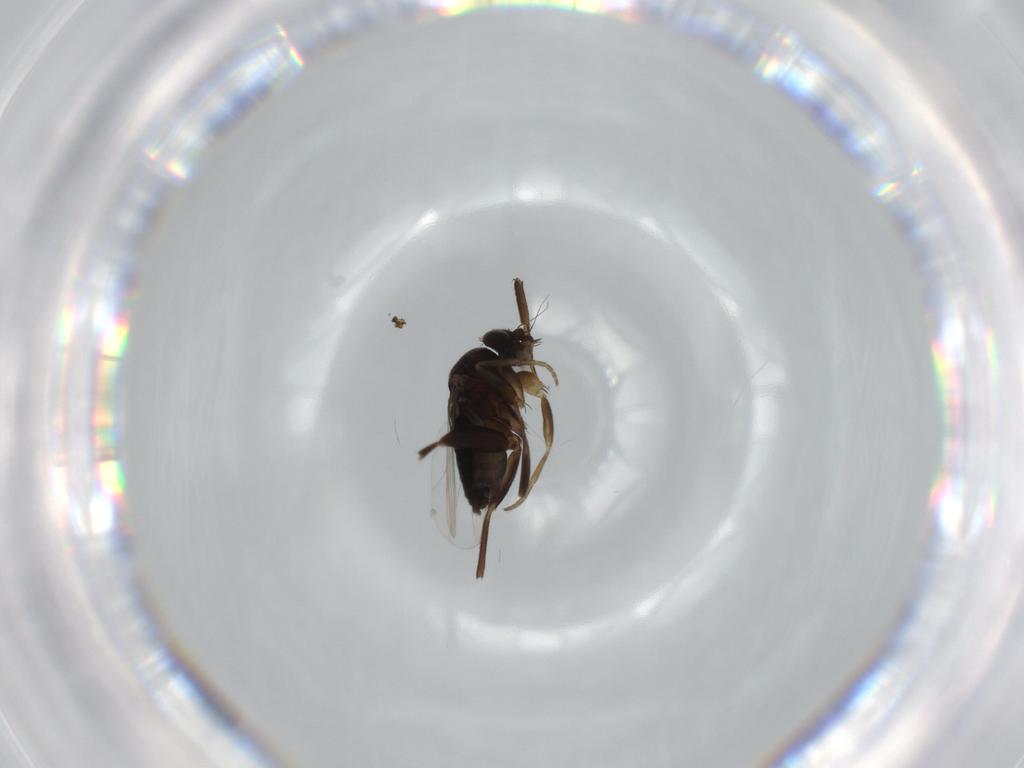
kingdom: Animalia
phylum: Arthropoda
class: Insecta
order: Diptera
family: Phoridae
